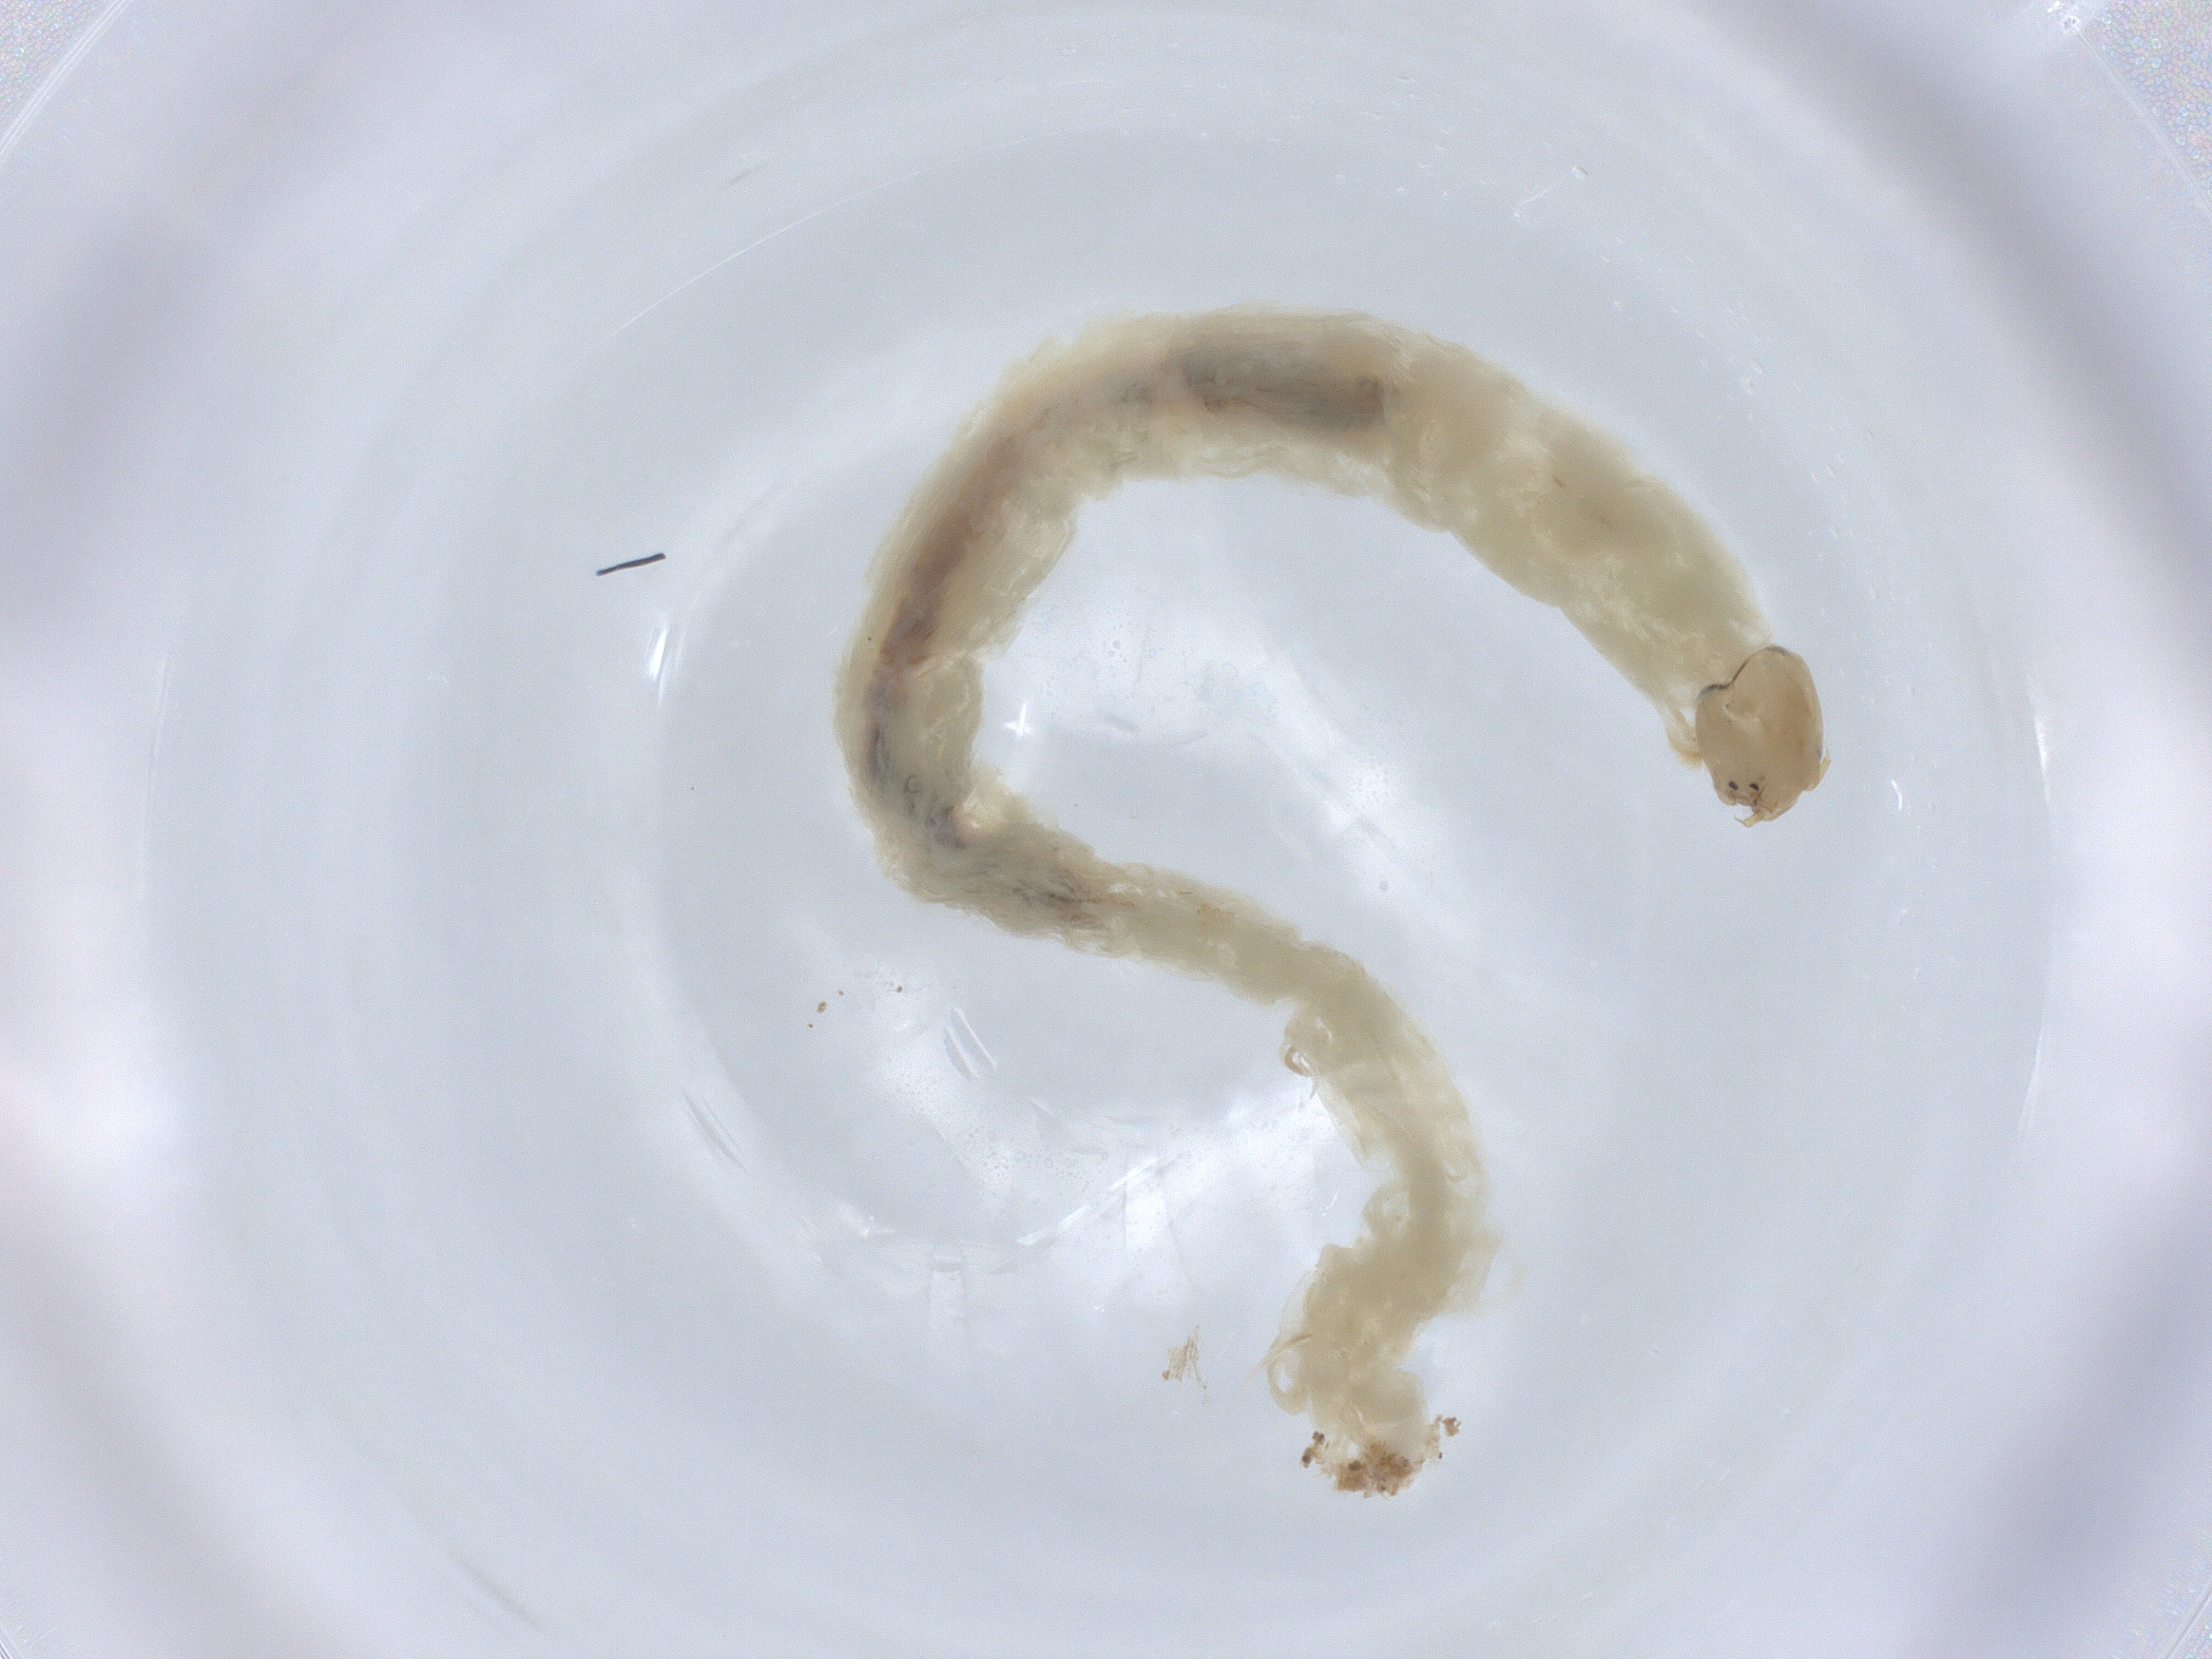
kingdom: Animalia
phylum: Arthropoda
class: Insecta
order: Diptera
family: Chironomidae
